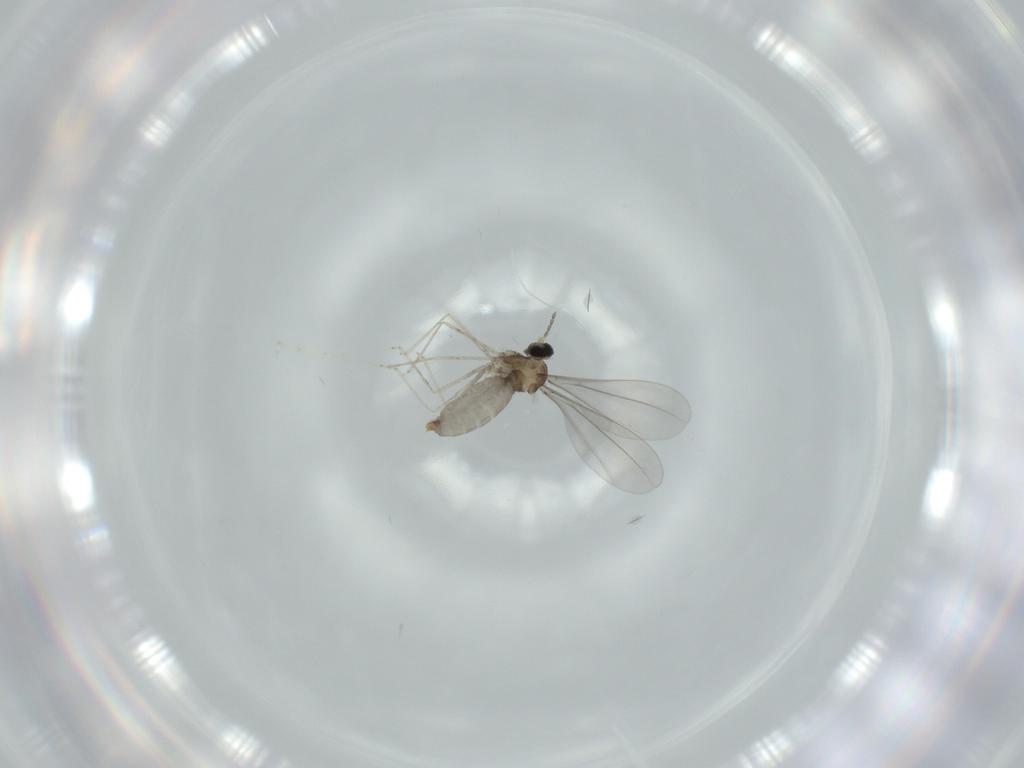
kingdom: Animalia
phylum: Arthropoda
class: Insecta
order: Diptera
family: Cecidomyiidae
